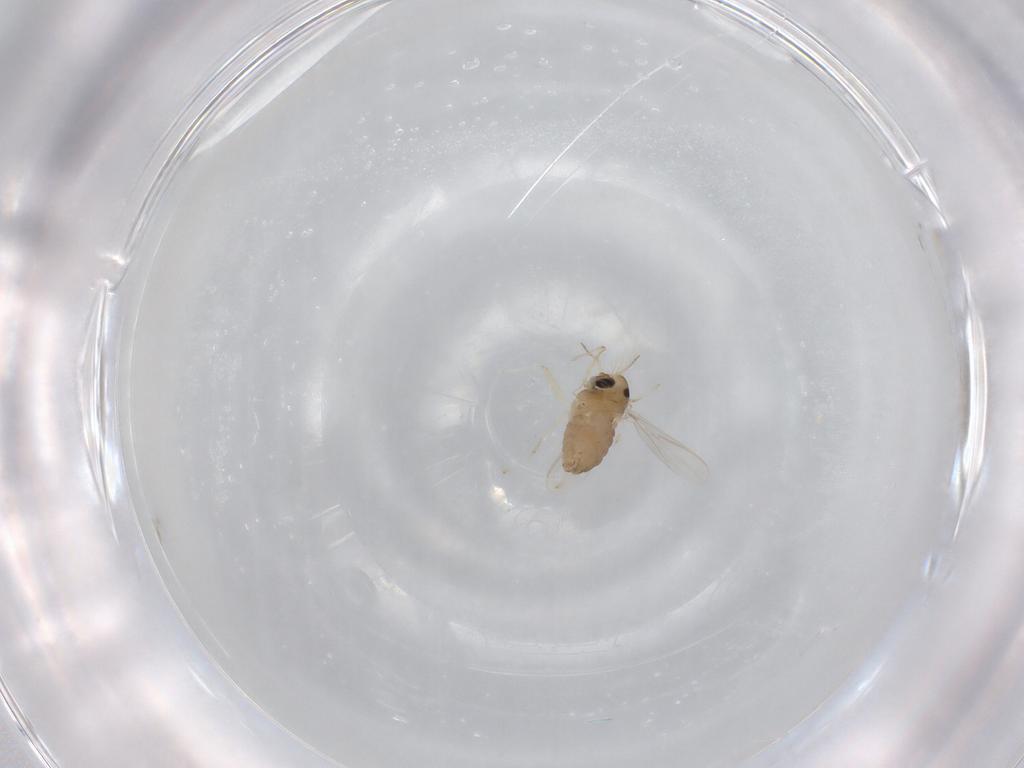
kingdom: Animalia
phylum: Arthropoda
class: Insecta
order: Diptera
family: Chironomidae
